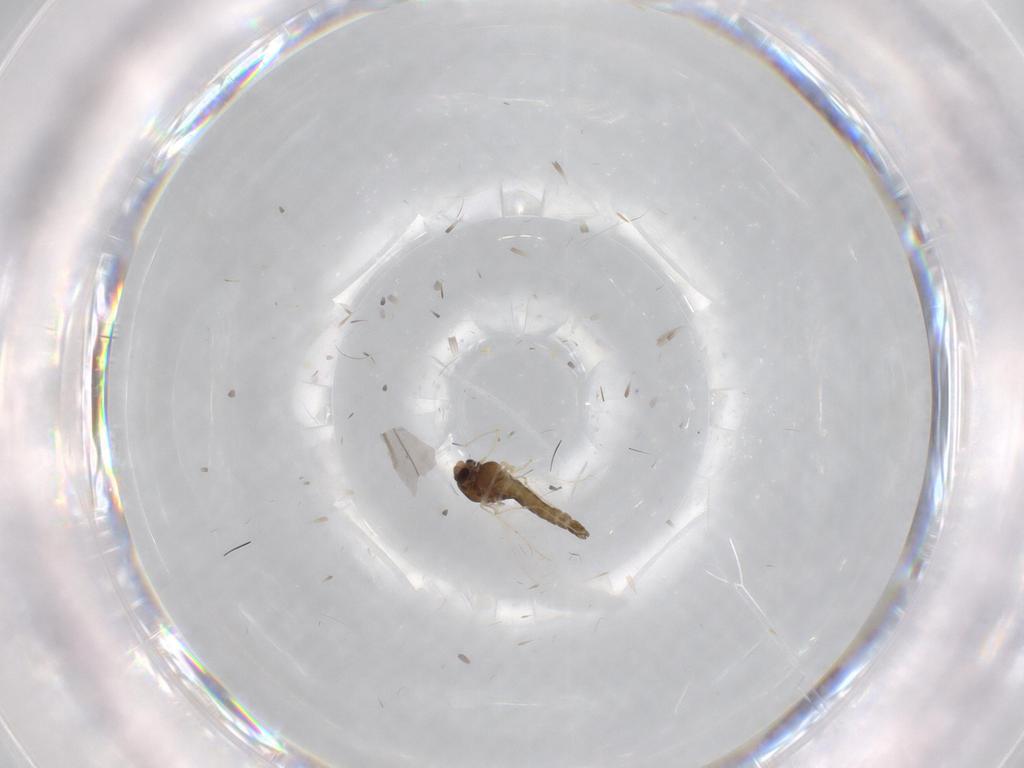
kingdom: Animalia
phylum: Arthropoda
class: Insecta
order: Diptera
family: Chironomidae
